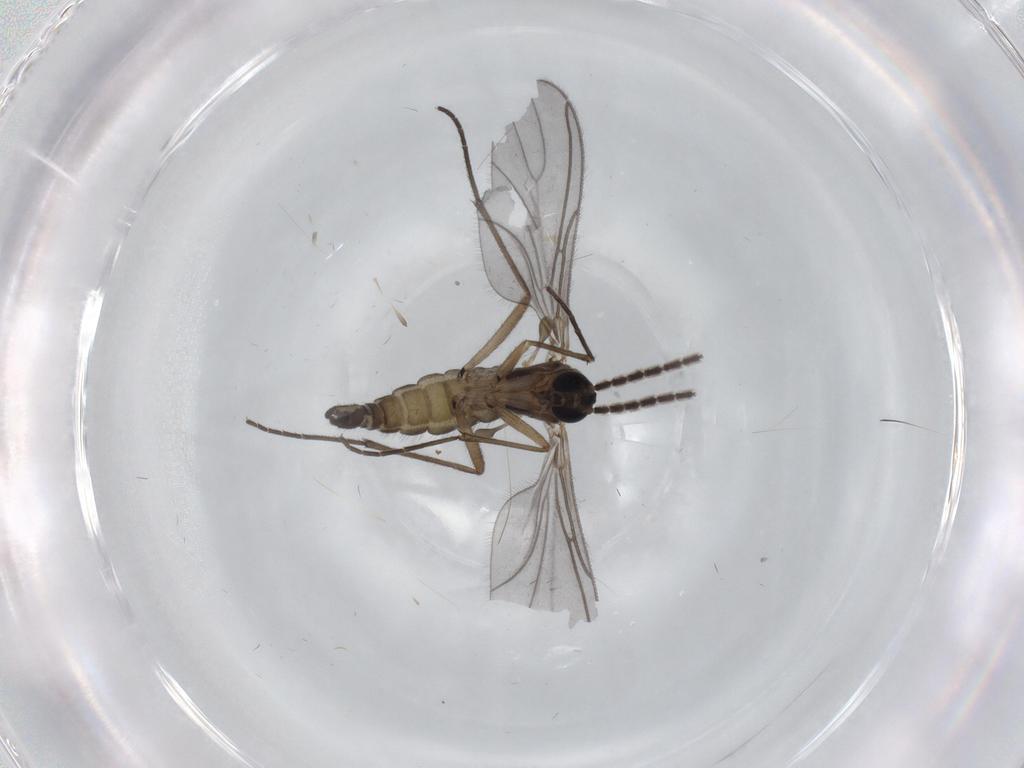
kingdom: Animalia
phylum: Arthropoda
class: Insecta
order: Diptera
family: Sciaridae
